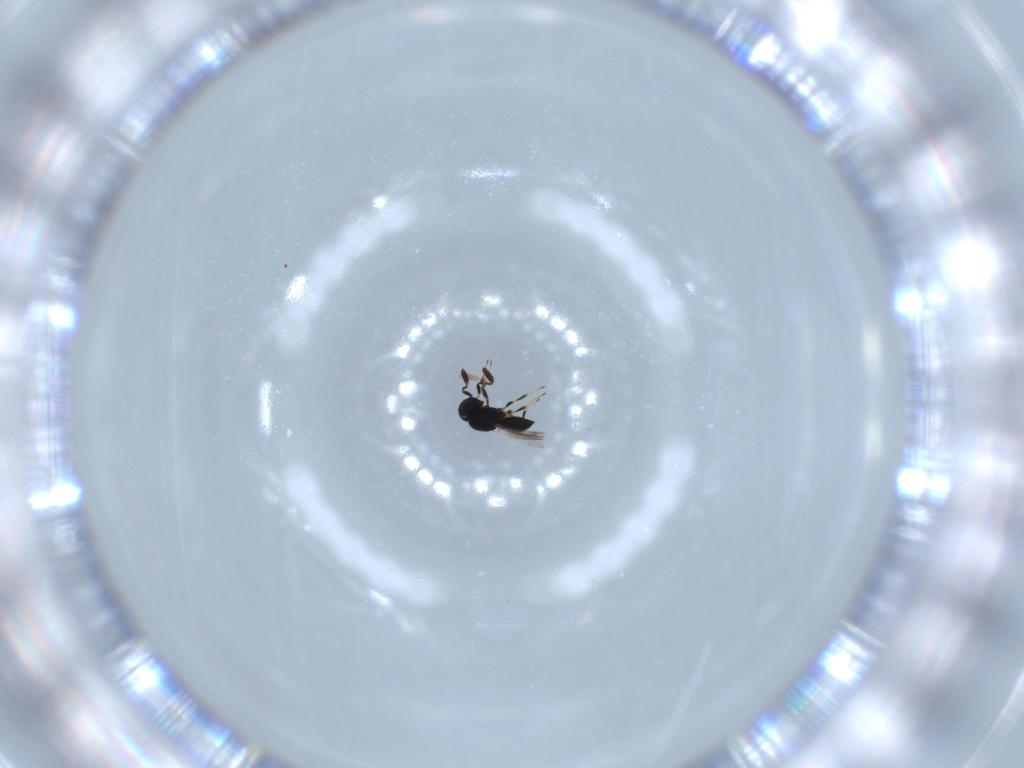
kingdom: Animalia
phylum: Arthropoda
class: Insecta
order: Hymenoptera
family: Scelionidae
